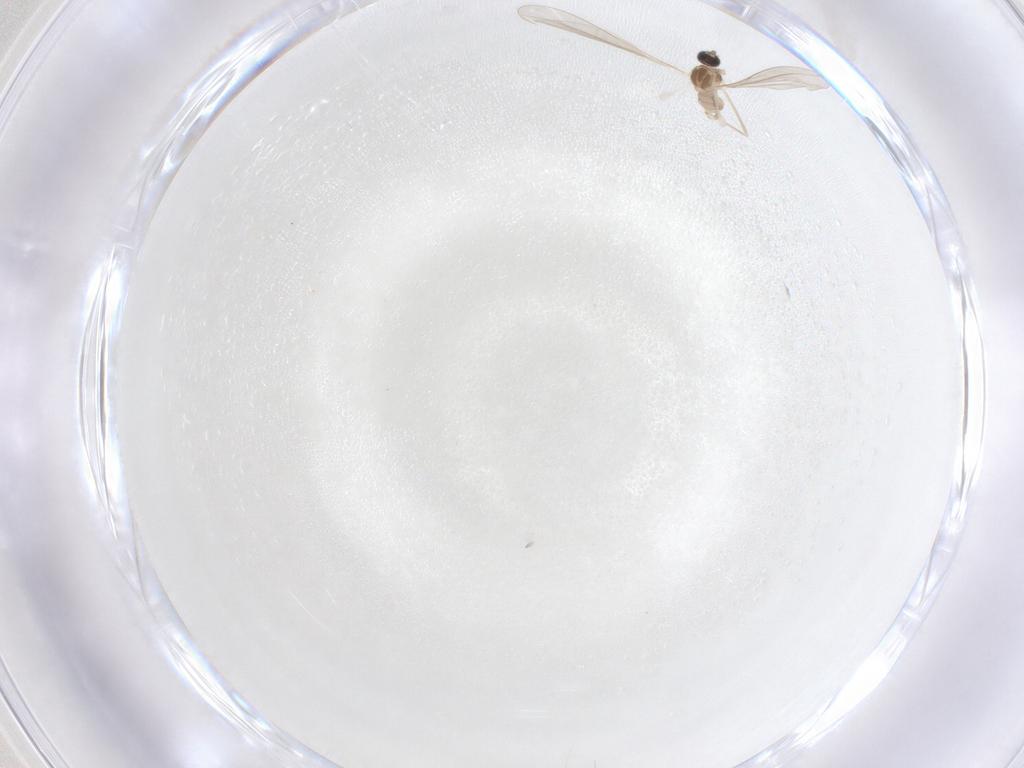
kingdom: Animalia
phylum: Arthropoda
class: Insecta
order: Diptera
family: Cecidomyiidae
